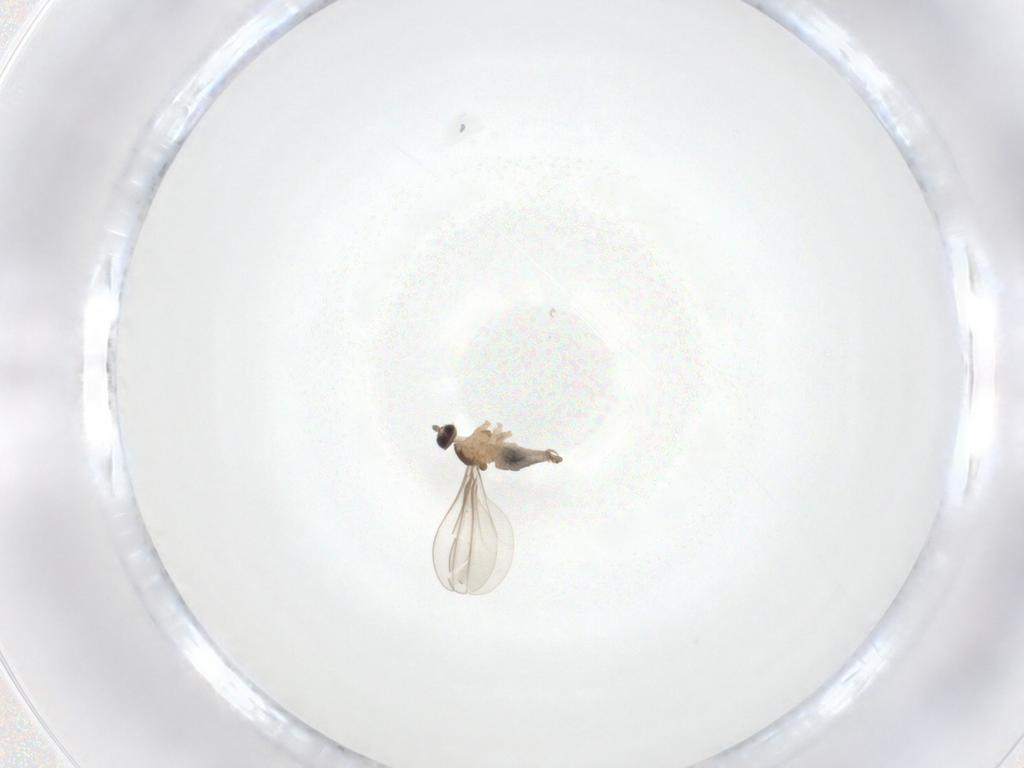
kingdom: Animalia
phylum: Arthropoda
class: Insecta
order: Diptera
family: Cecidomyiidae
